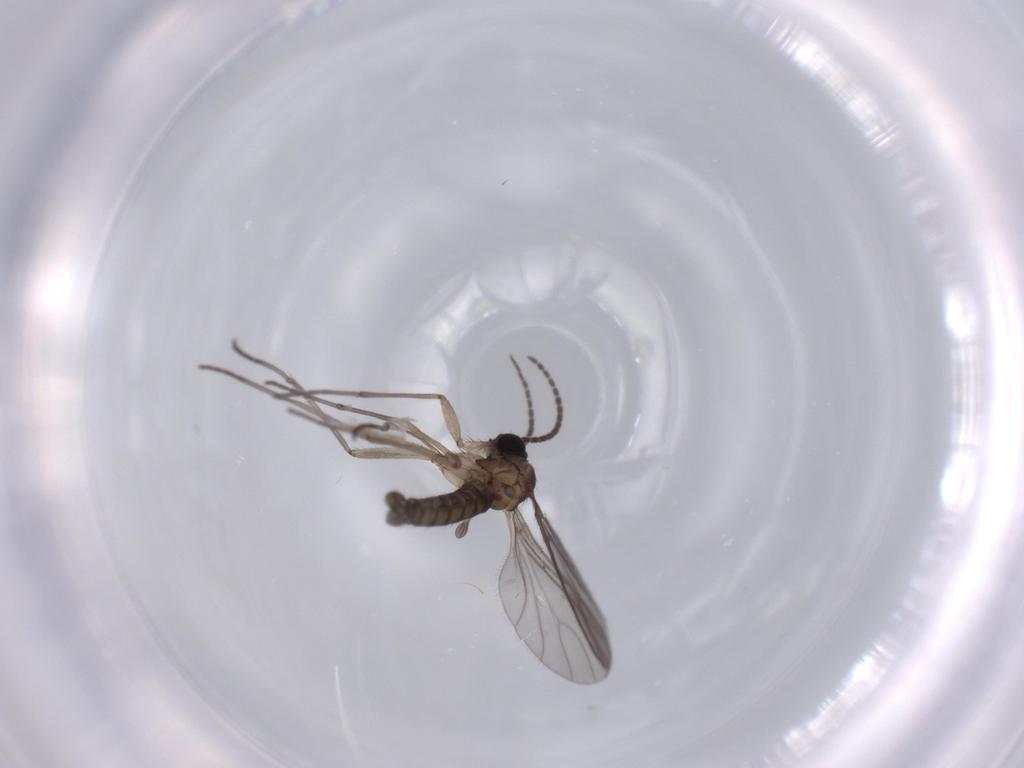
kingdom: Animalia
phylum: Arthropoda
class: Insecta
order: Diptera
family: Sciaridae
